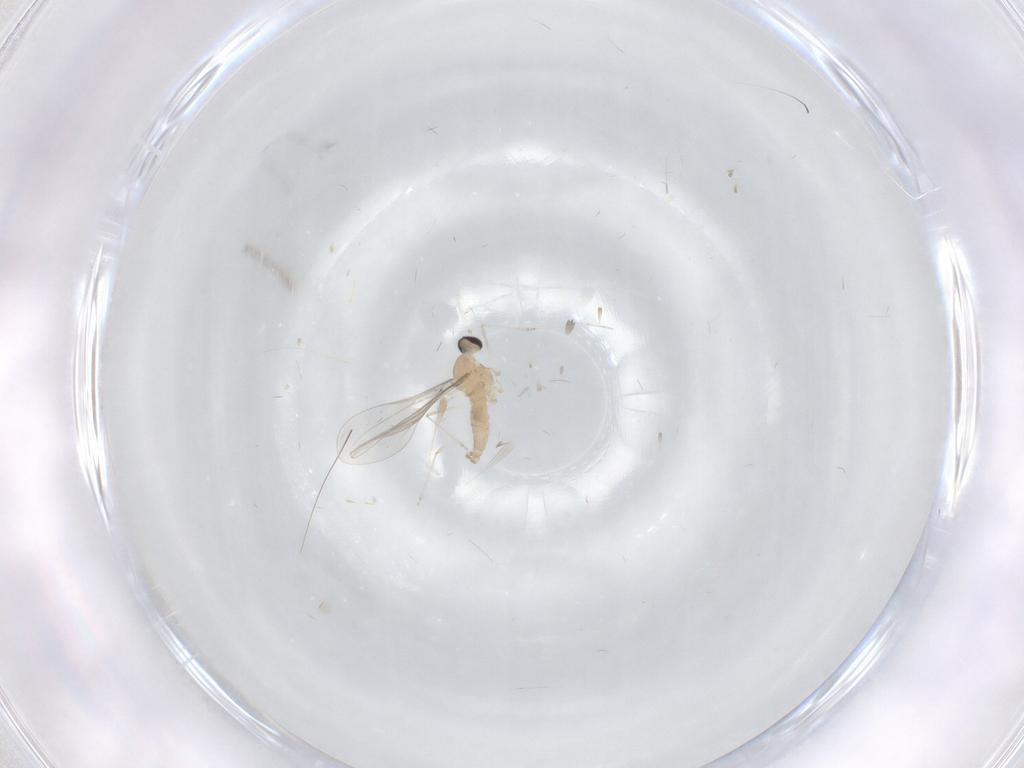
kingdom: Animalia
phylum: Arthropoda
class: Insecta
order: Diptera
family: Cecidomyiidae
